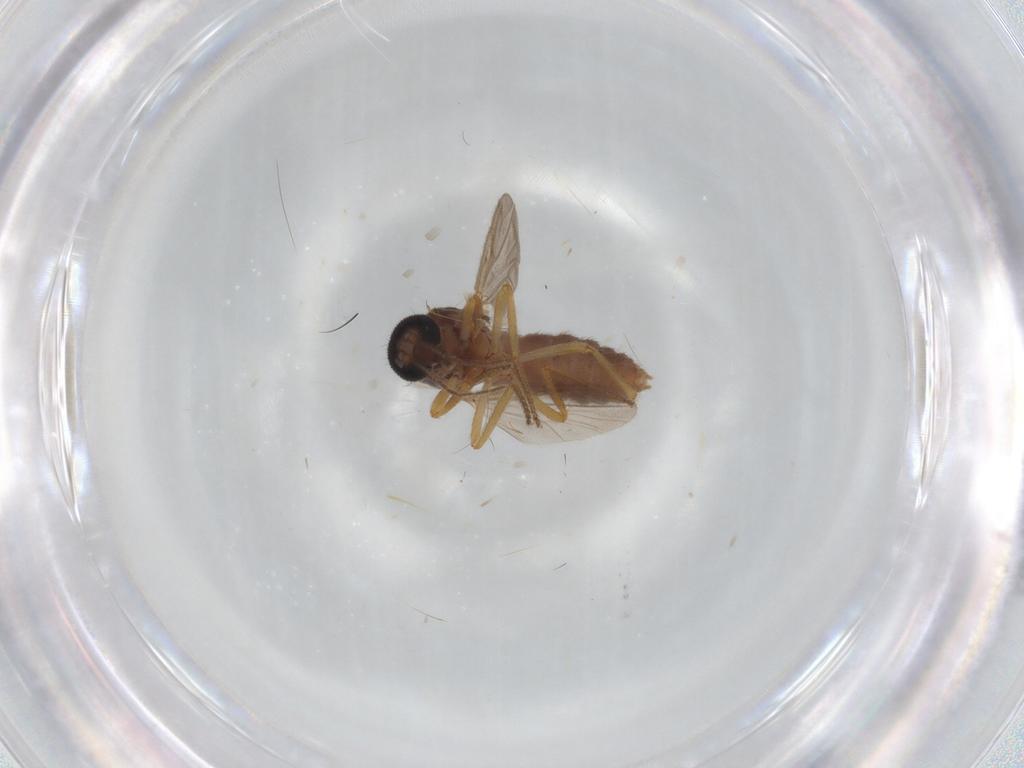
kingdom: Animalia
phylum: Arthropoda
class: Insecta
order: Diptera
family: Ceratopogonidae
